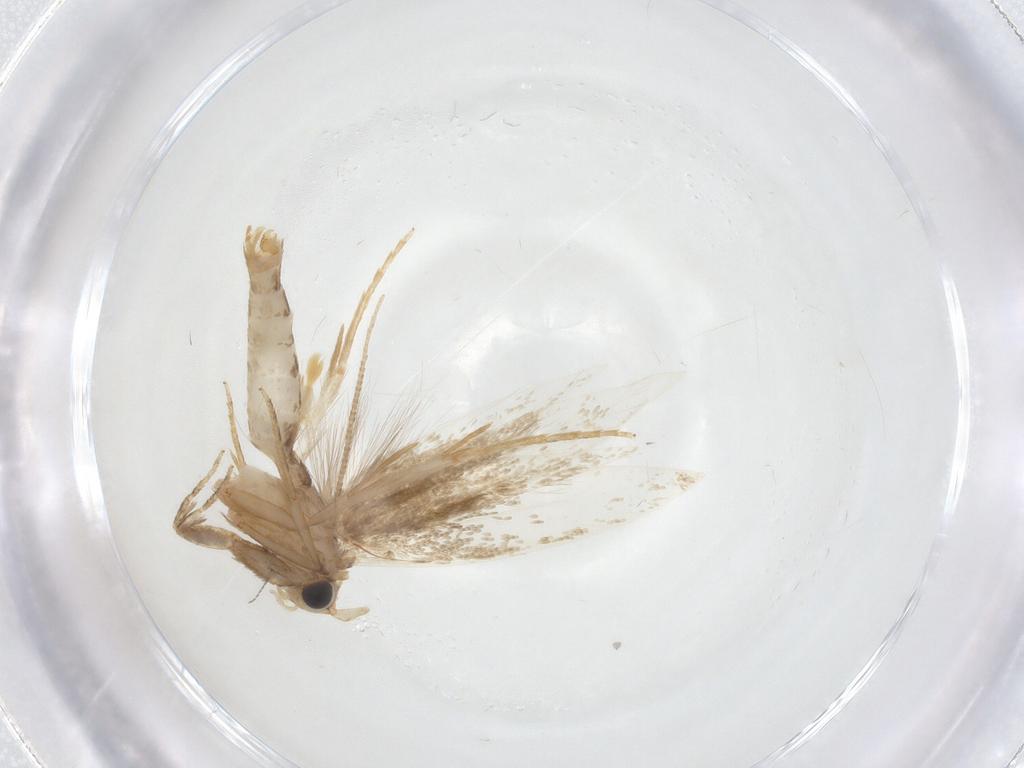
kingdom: Animalia
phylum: Arthropoda
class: Insecta
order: Lepidoptera
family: Tineidae
